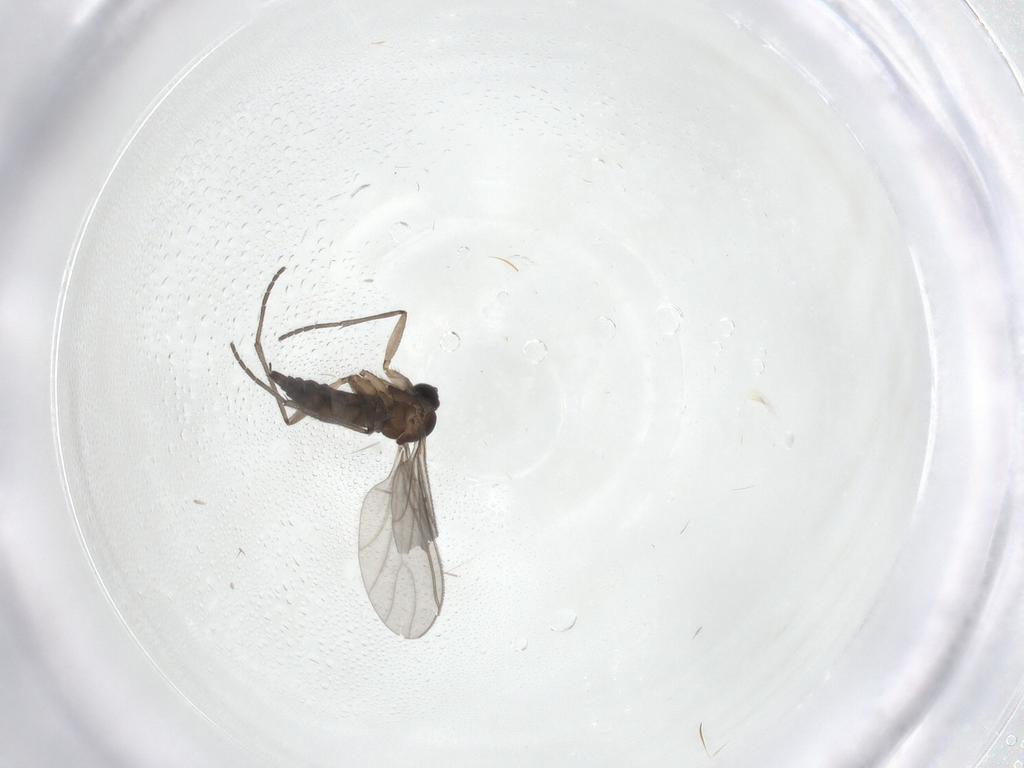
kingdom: Animalia
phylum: Arthropoda
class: Insecta
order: Diptera
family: Sciaridae
